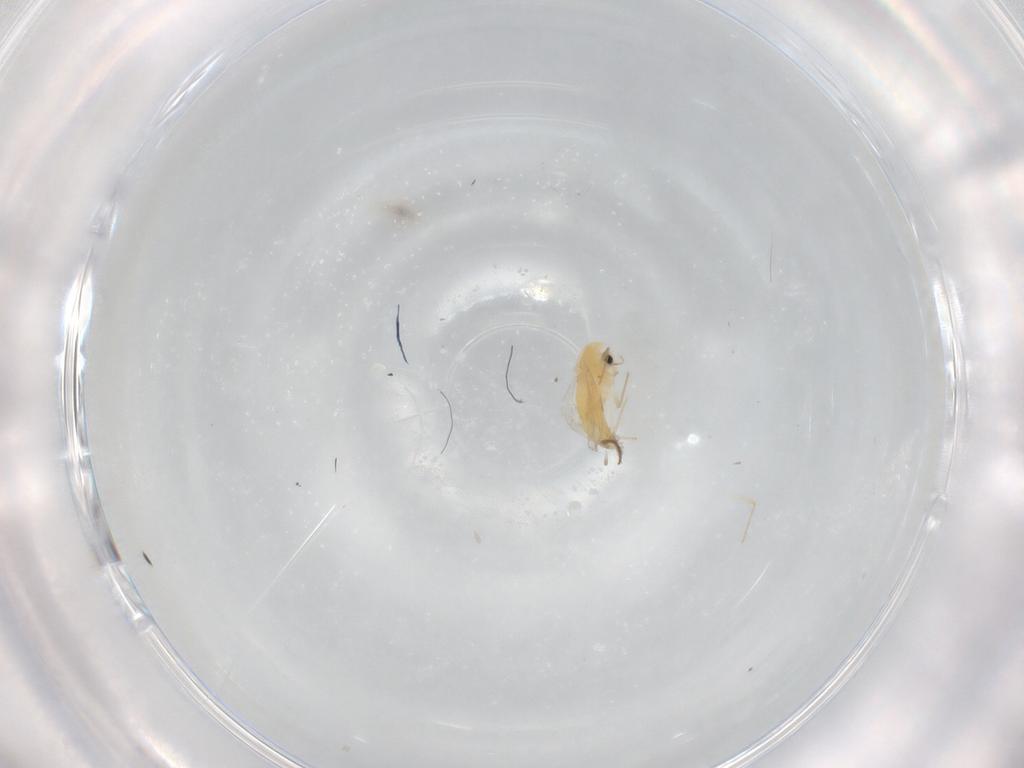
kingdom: Animalia
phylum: Arthropoda
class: Insecta
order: Diptera
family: Chironomidae
